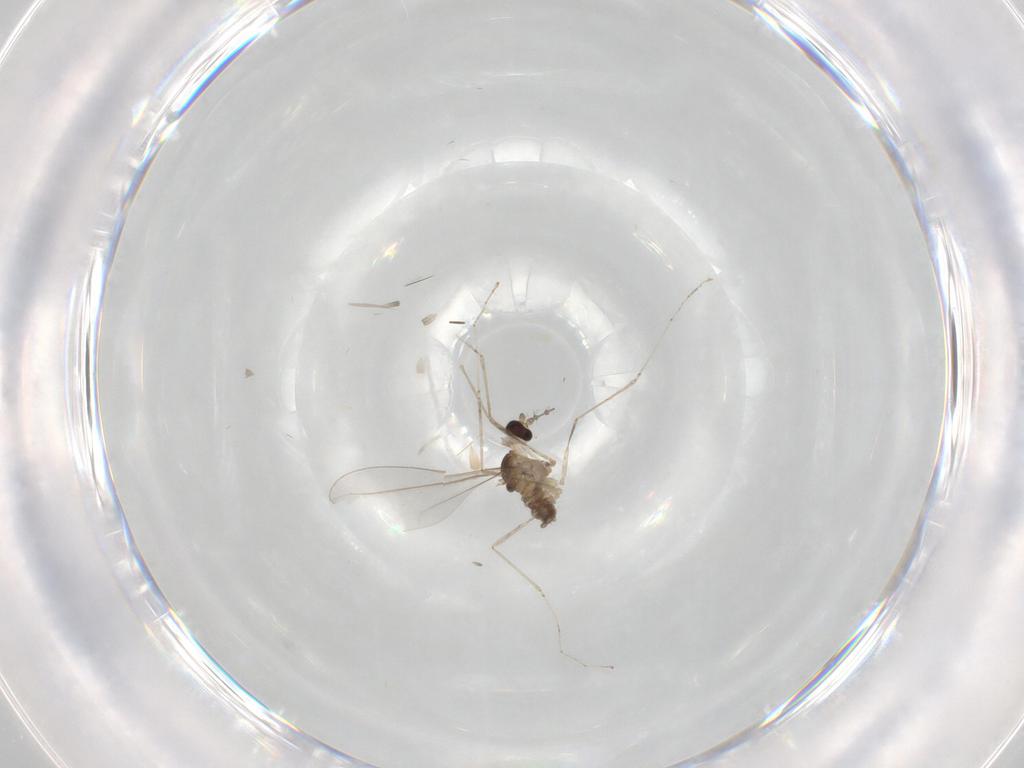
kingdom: Animalia
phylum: Arthropoda
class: Insecta
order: Diptera
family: Cecidomyiidae
